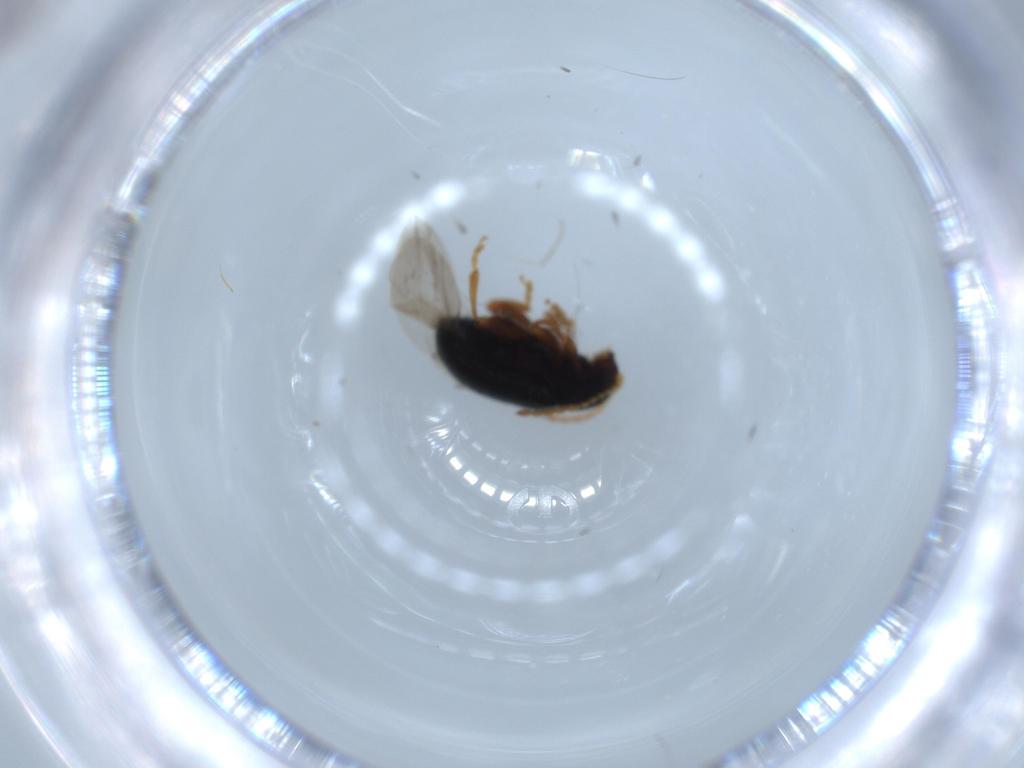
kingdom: Animalia
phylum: Arthropoda
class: Insecta
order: Coleoptera
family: Chrysomelidae
